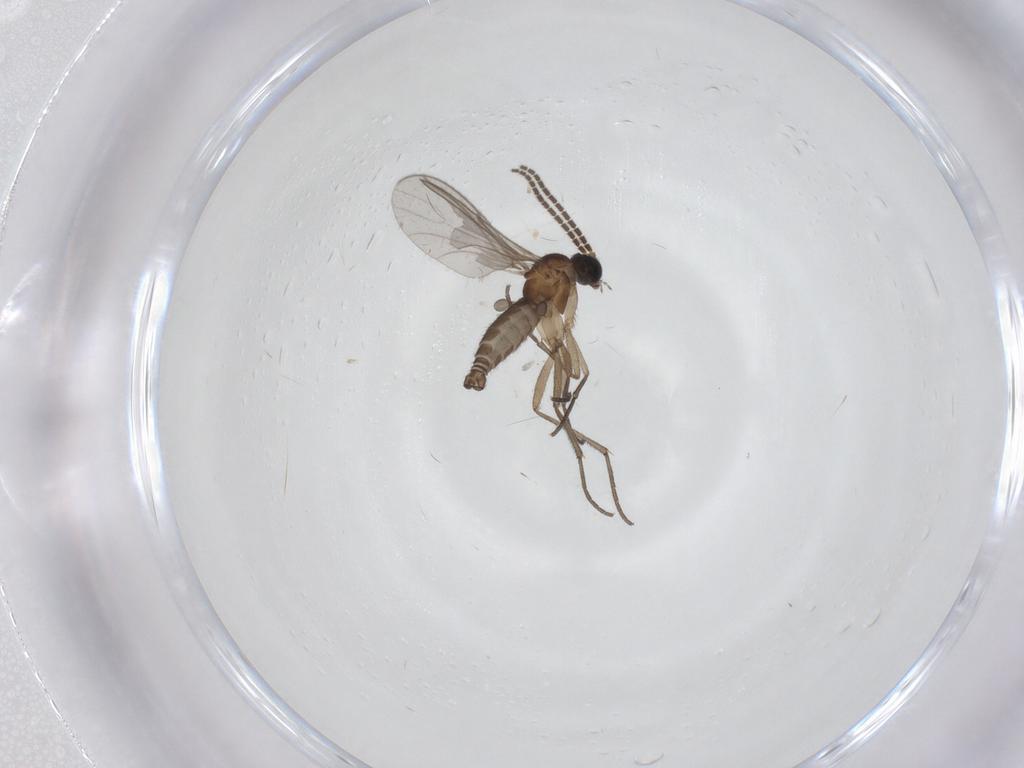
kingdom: Animalia
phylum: Arthropoda
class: Insecta
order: Diptera
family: Sciaridae
